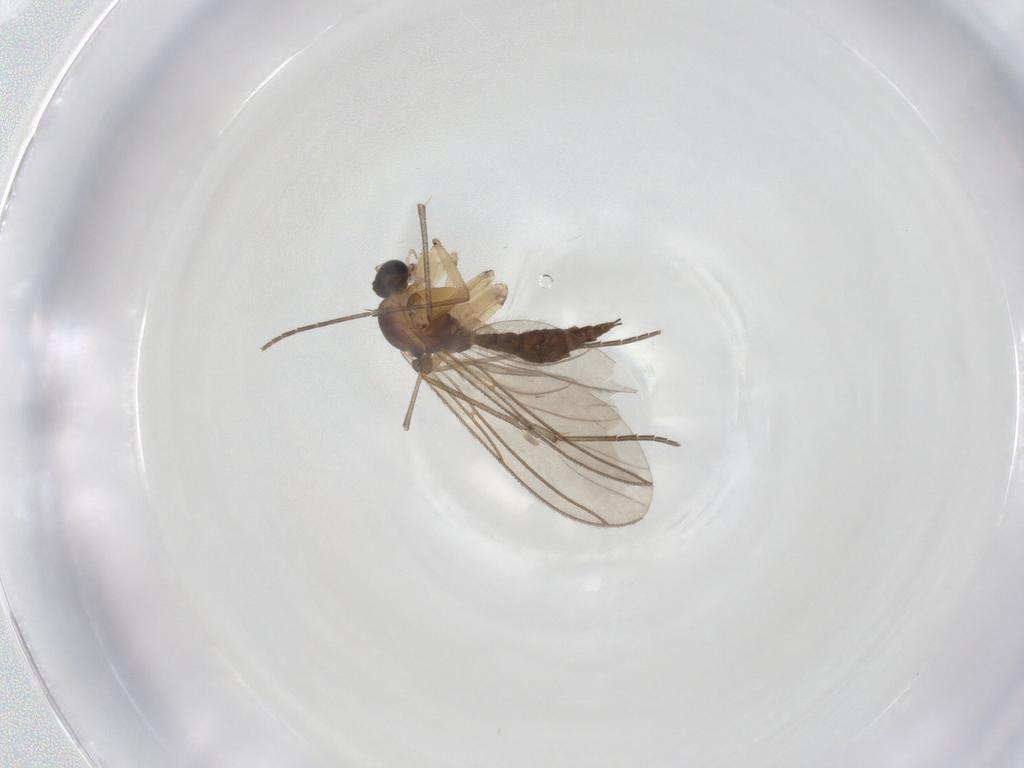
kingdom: Animalia
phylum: Arthropoda
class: Insecta
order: Diptera
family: Sciaridae
